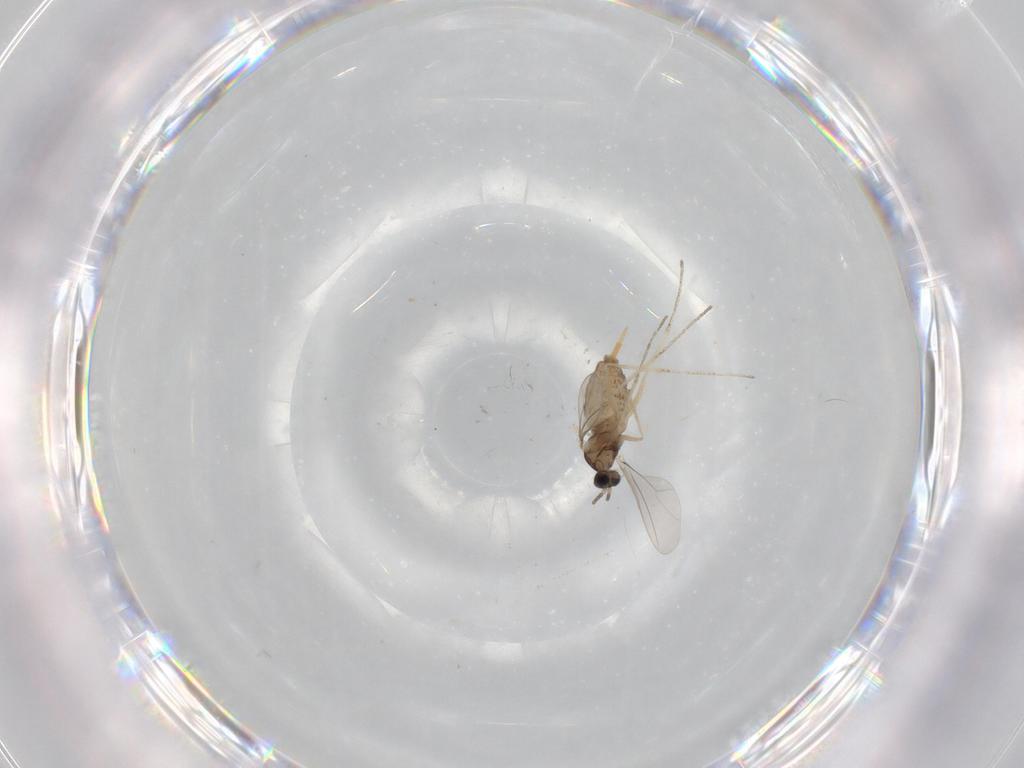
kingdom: Animalia
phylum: Arthropoda
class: Insecta
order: Diptera
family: Cecidomyiidae
